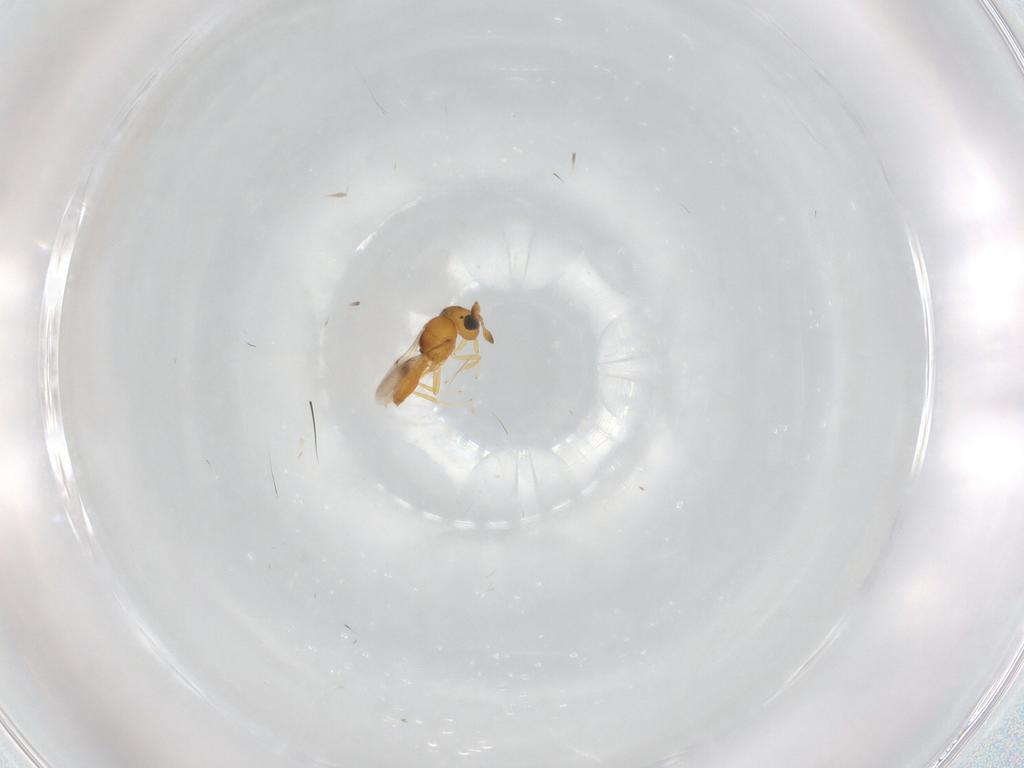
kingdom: Animalia
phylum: Arthropoda
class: Insecta
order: Hymenoptera
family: Scelionidae
